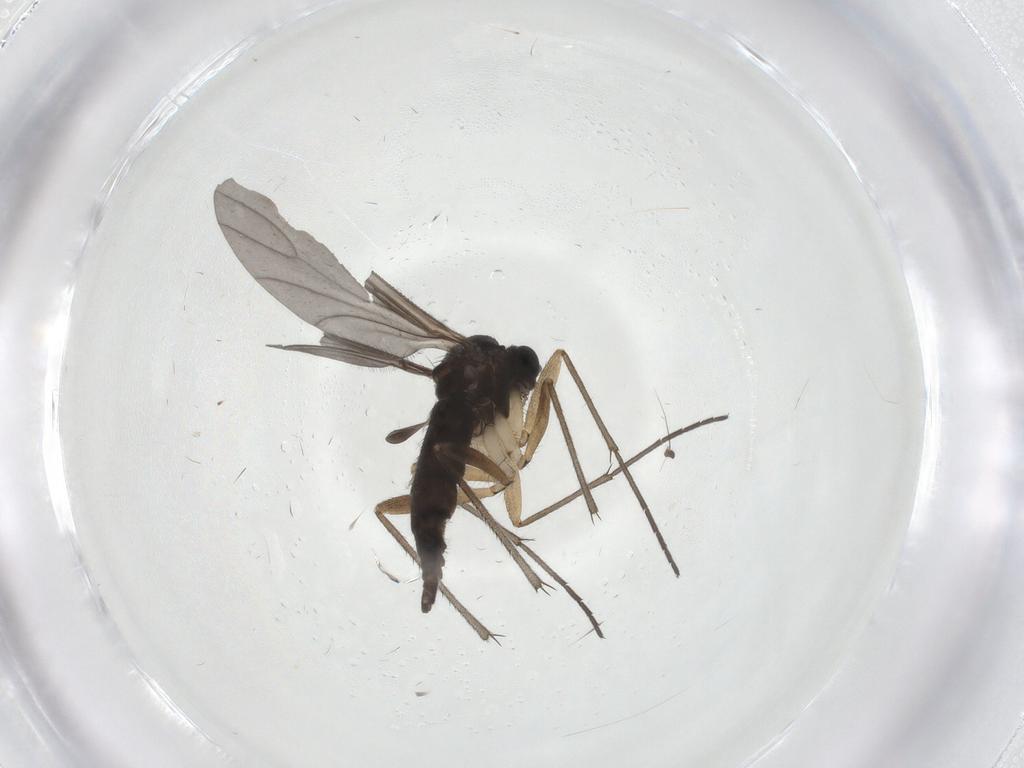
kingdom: Animalia
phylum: Arthropoda
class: Insecta
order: Diptera
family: Sciaridae
